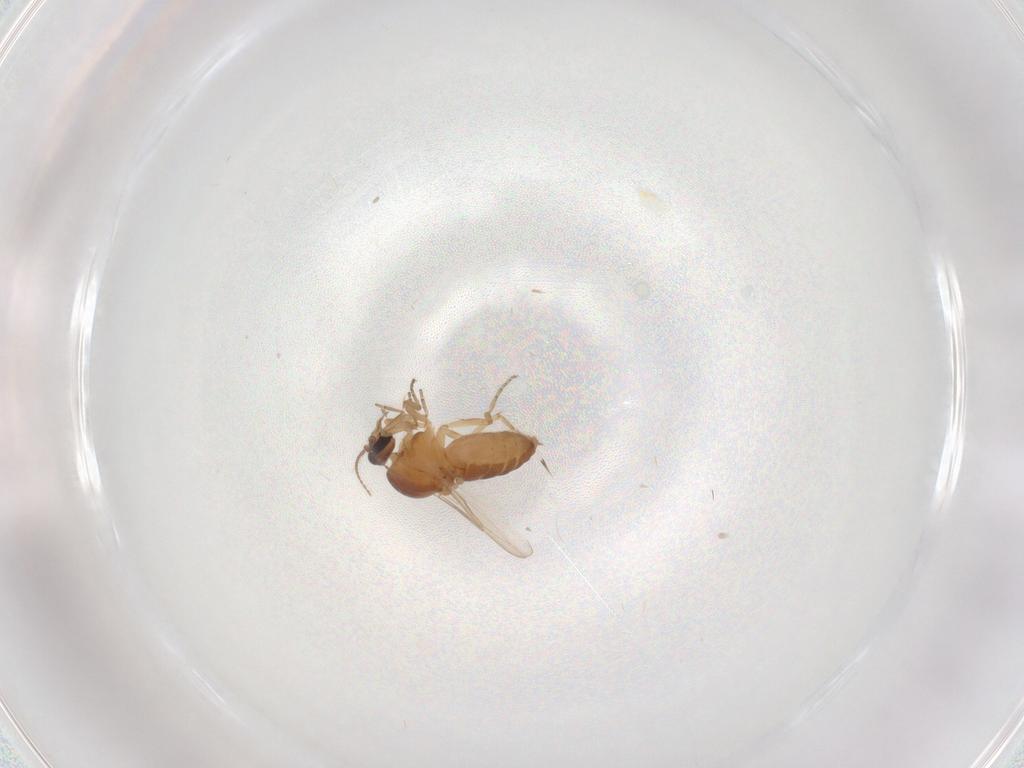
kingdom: Animalia
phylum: Arthropoda
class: Insecta
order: Diptera
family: Ceratopogonidae
